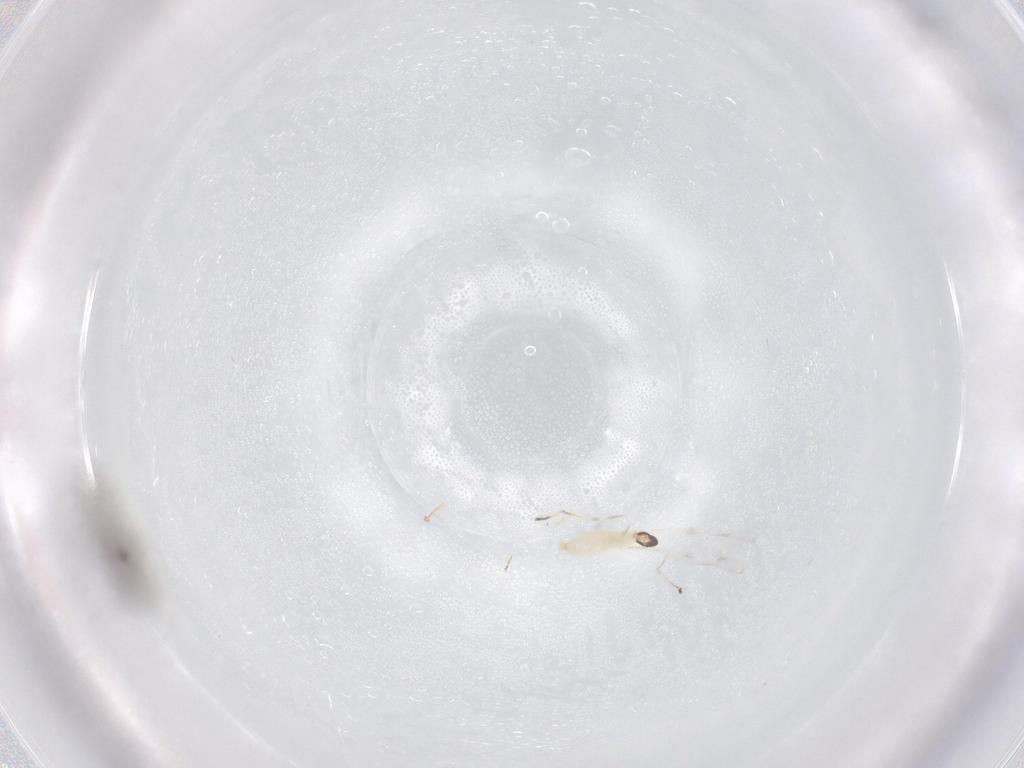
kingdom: Animalia
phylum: Arthropoda
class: Insecta
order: Diptera
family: Cecidomyiidae
